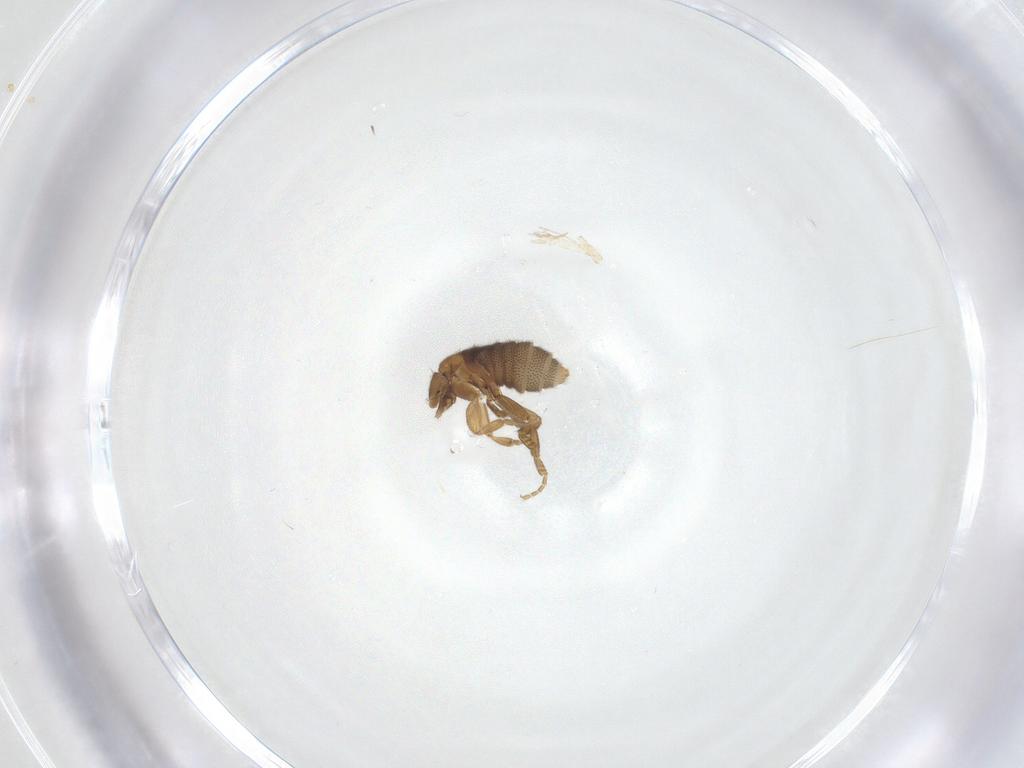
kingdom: Animalia
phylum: Arthropoda
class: Insecta
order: Diptera
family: Phoridae
